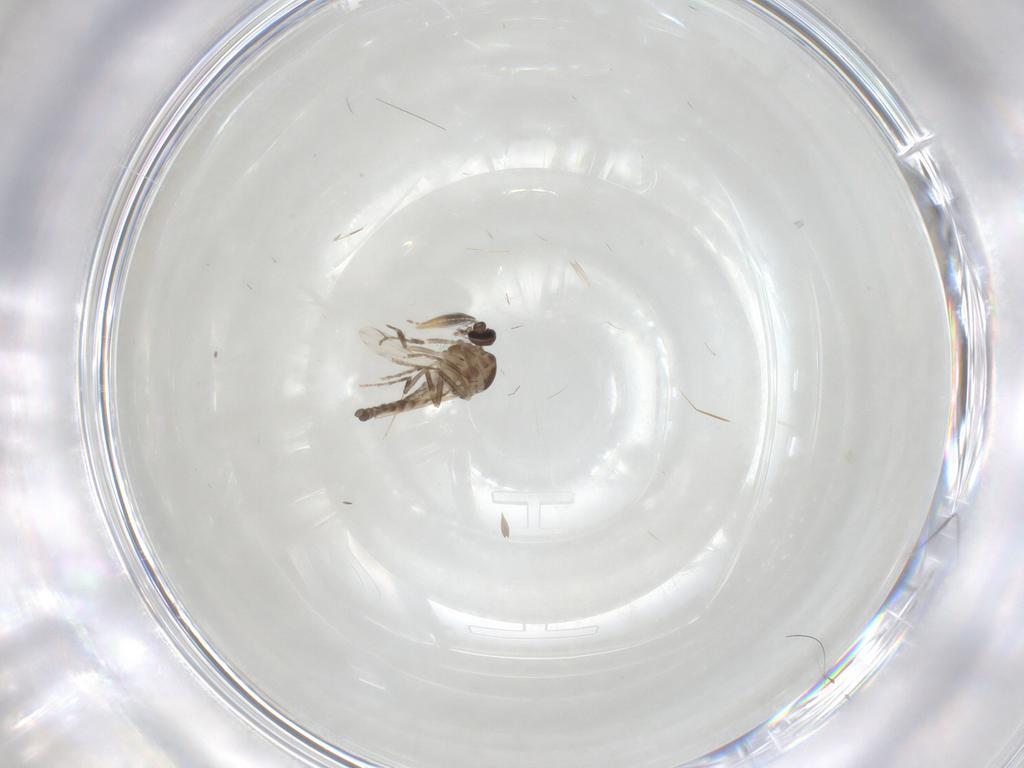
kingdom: Animalia
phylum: Arthropoda
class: Insecta
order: Diptera
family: Ceratopogonidae
